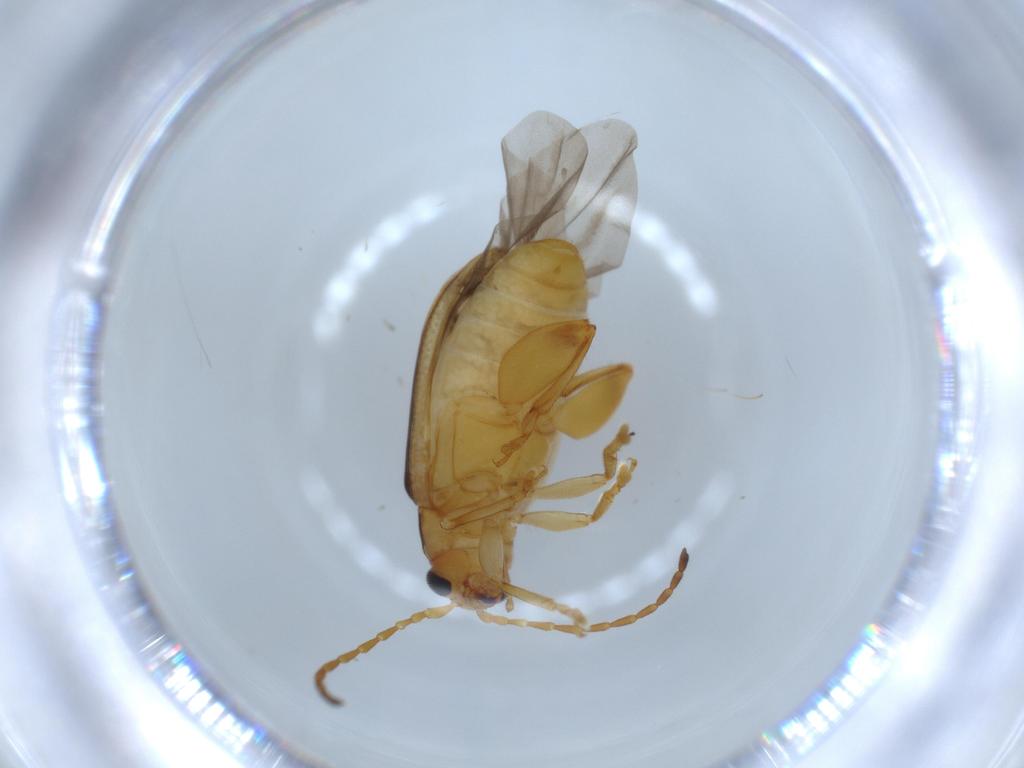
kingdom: Animalia
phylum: Arthropoda
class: Insecta
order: Coleoptera
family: Chrysomelidae
